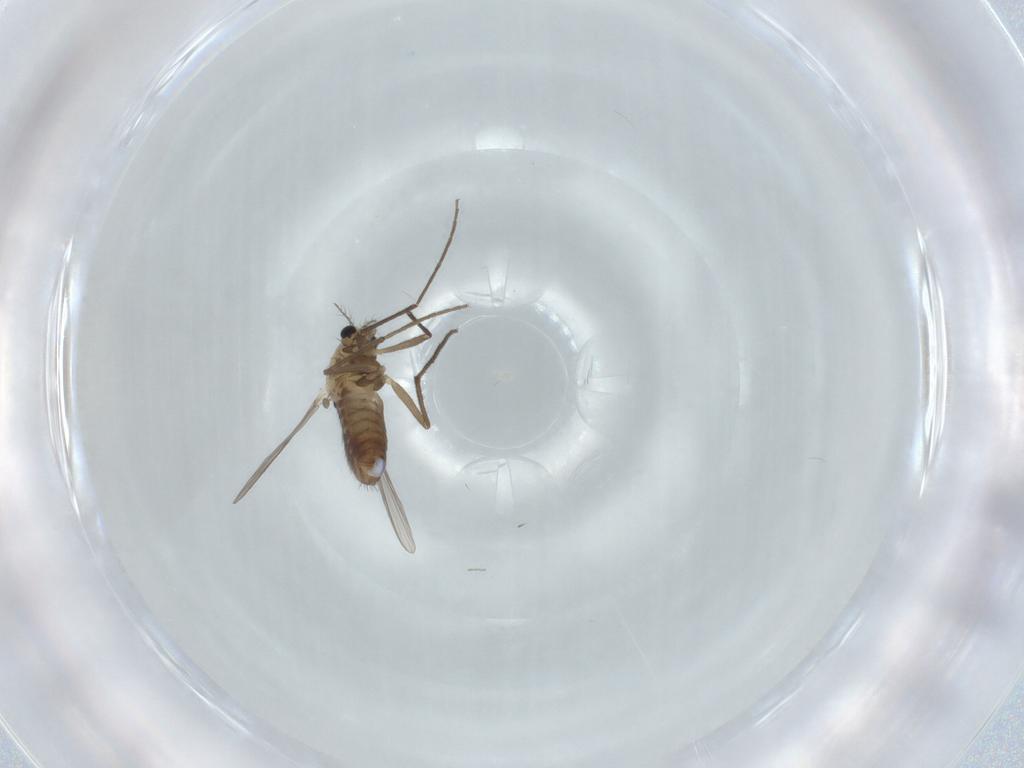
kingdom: Animalia
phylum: Arthropoda
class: Insecta
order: Diptera
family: Chironomidae
